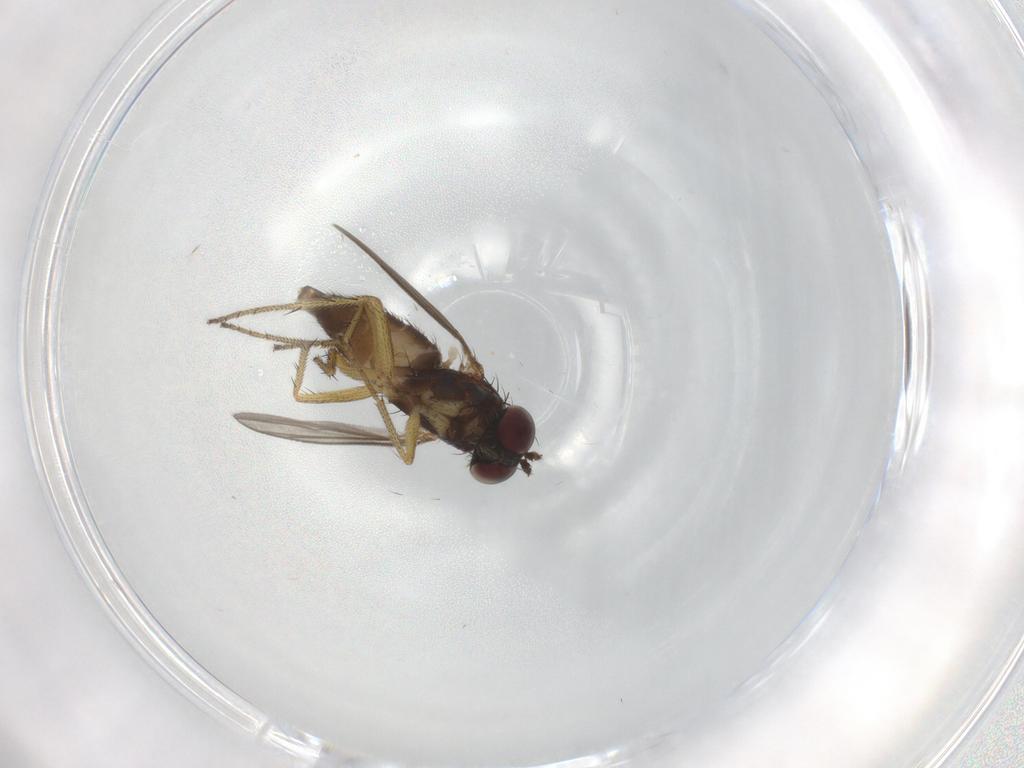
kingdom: Animalia
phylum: Arthropoda
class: Insecta
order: Diptera
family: Dolichopodidae
